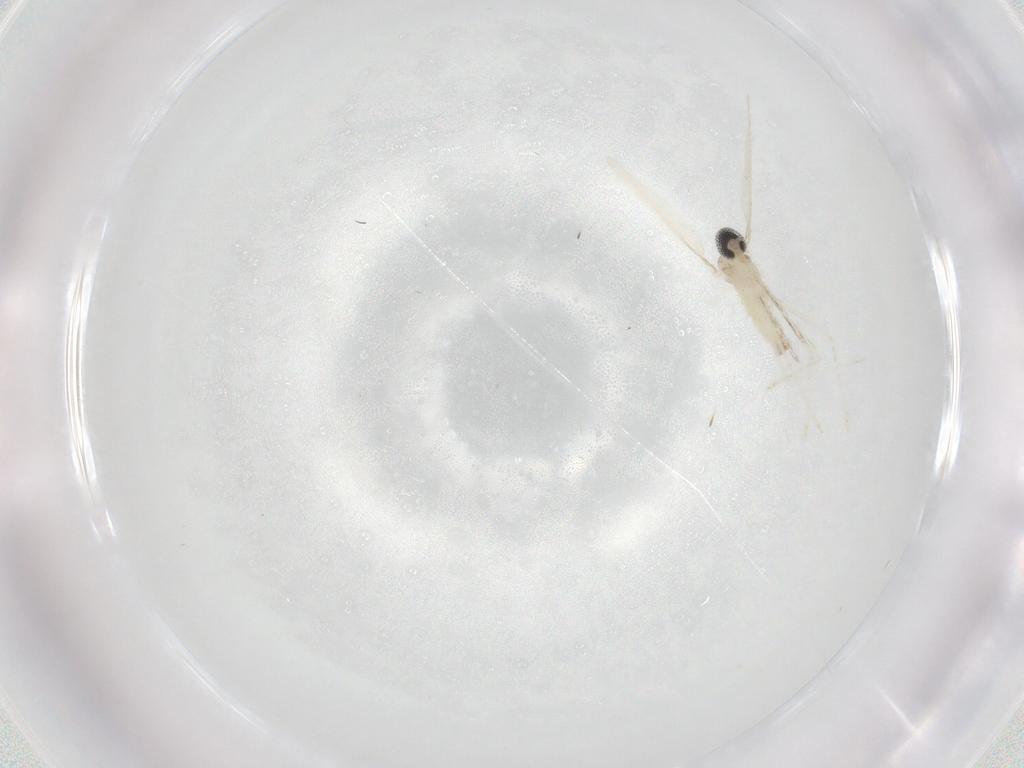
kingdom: Animalia
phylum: Arthropoda
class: Insecta
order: Diptera
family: Cecidomyiidae
